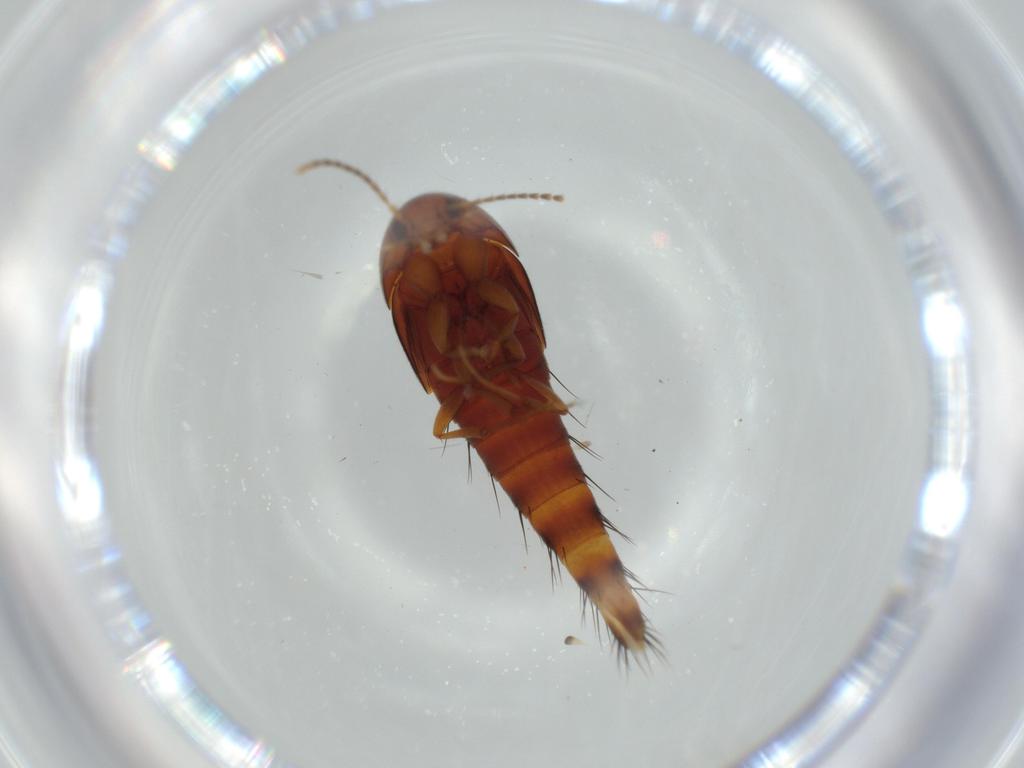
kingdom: Animalia
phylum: Arthropoda
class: Insecta
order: Coleoptera
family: Staphylinidae
